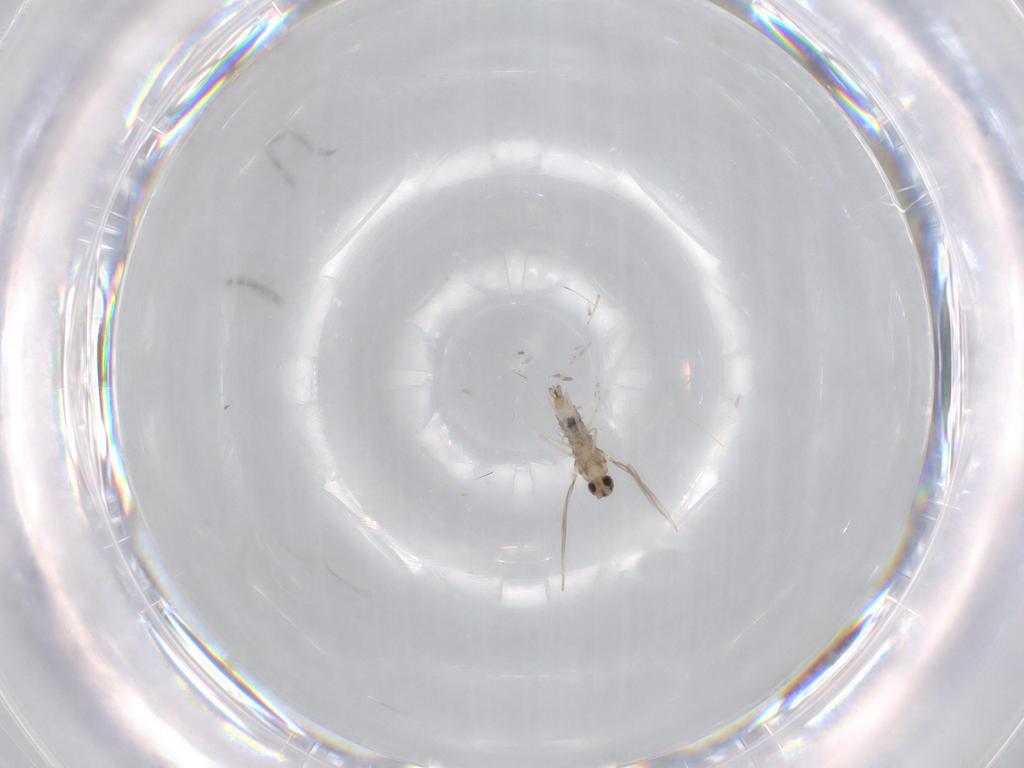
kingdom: Animalia
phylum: Arthropoda
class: Insecta
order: Diptera
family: Cecidomyiidae
